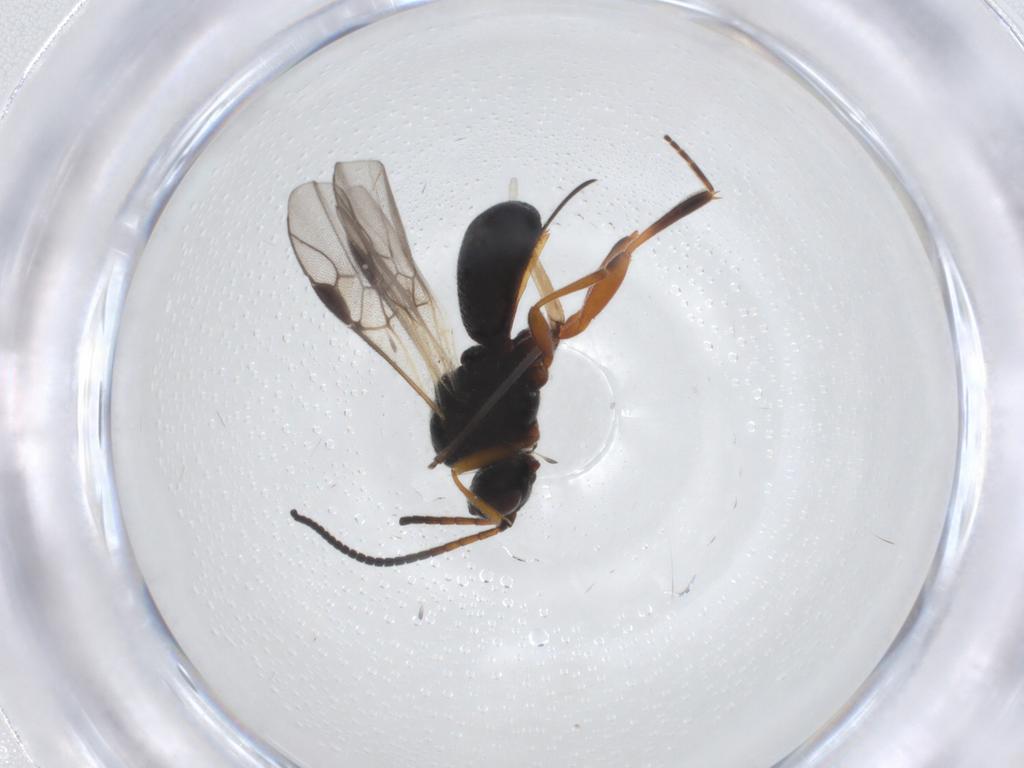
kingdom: Animalia
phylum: Arthropoda
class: Insecta
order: Hymenoptera
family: Braconidae
